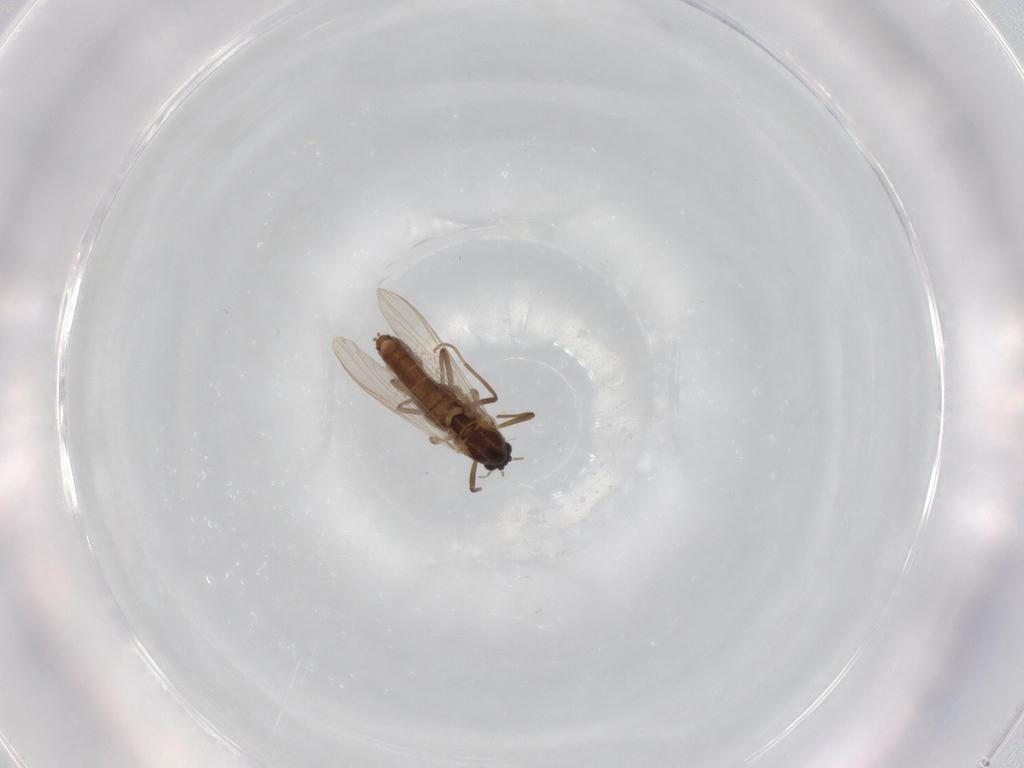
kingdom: Animalia
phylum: Arthropoda
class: Insecta
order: Diptera
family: Chironomidae
